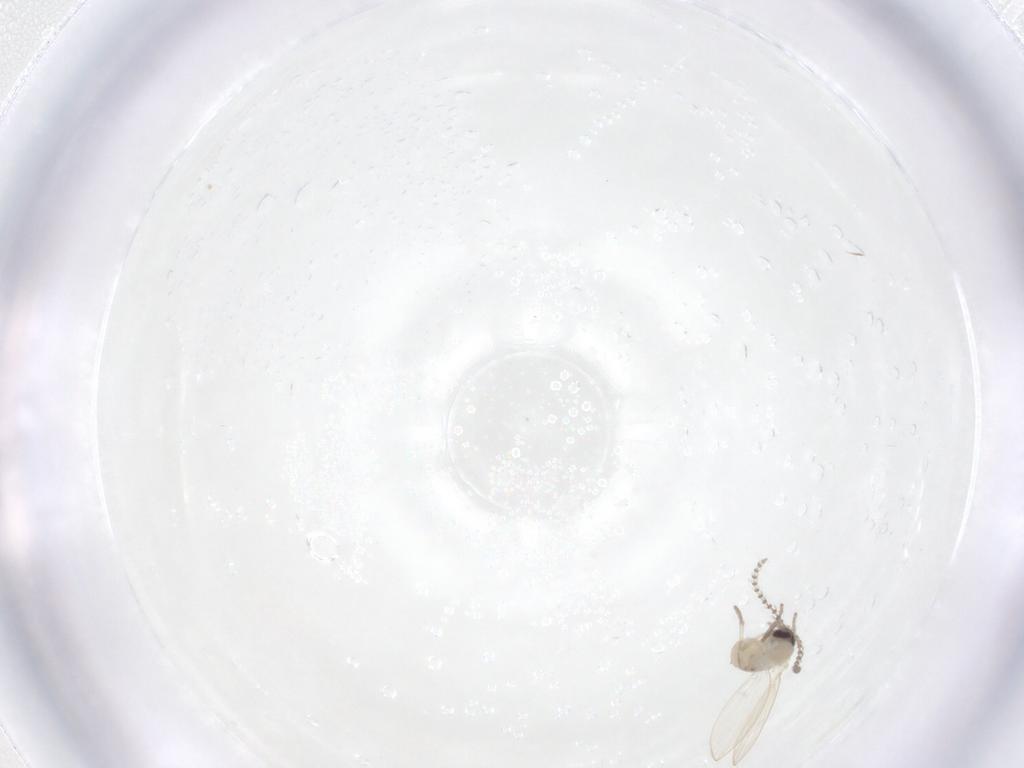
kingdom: Animalia
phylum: Arthropoda
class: Insecta
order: Diptera
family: Psychodidae
